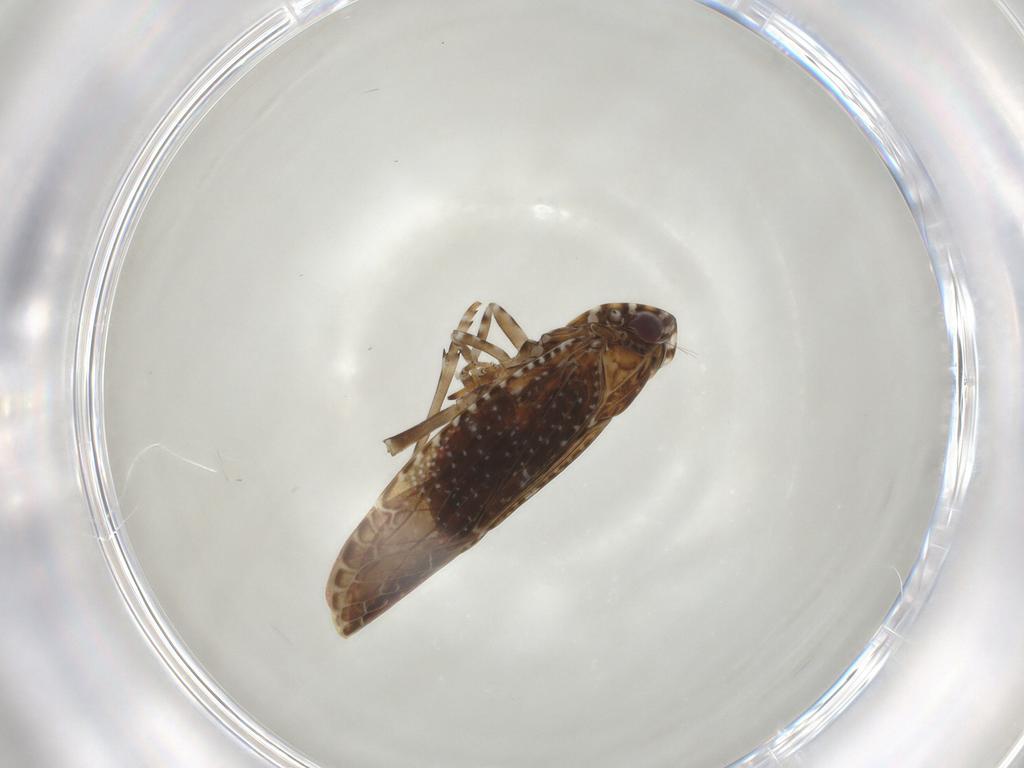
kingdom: Animalia
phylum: Arthropoda
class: Insecta
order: Hemiptera
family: Achilidae
